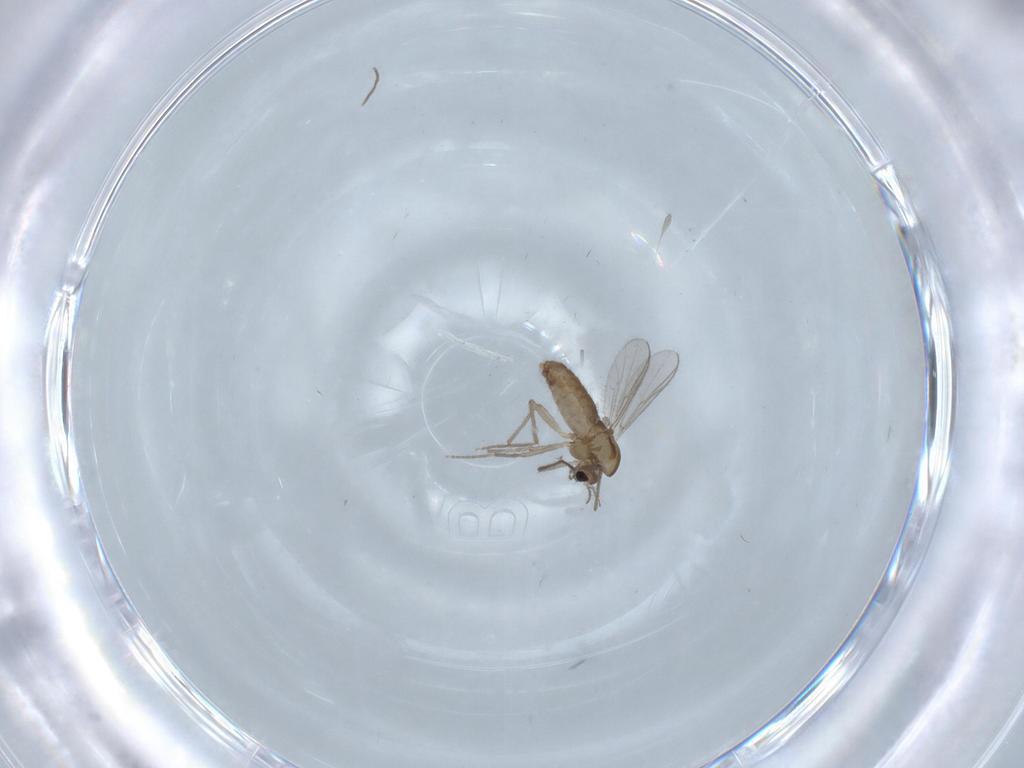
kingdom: Animalia
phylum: Arthropoda
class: Insecta
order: Diptera
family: Chironomidae
